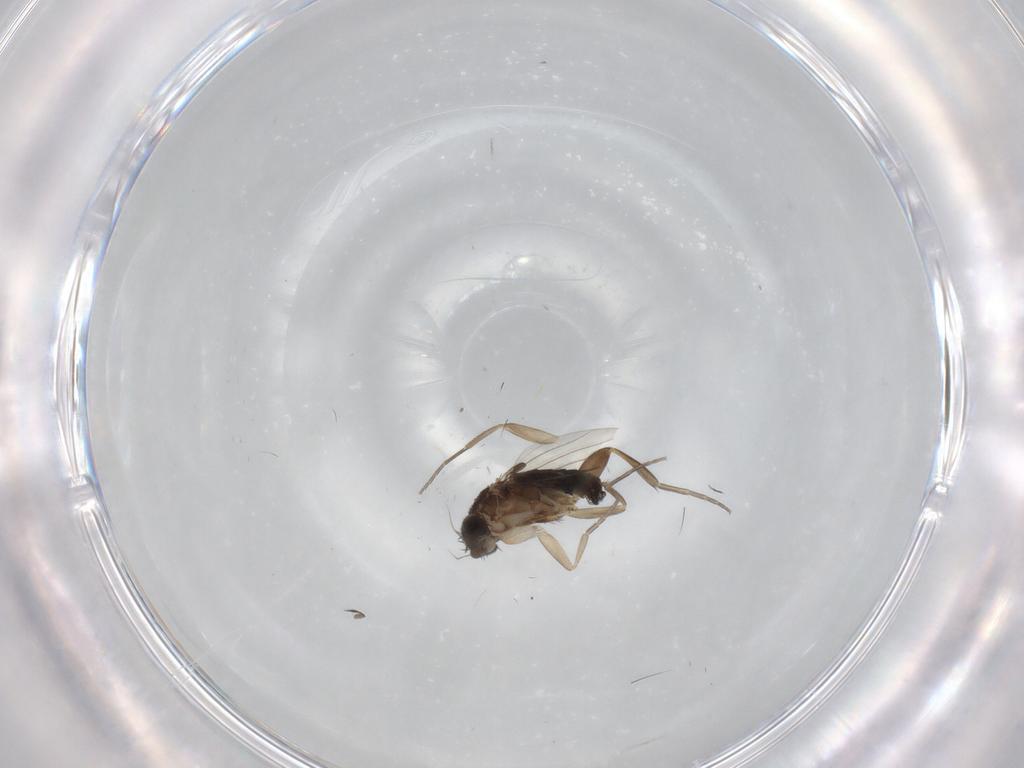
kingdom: Animalia
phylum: Arthropoda
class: Insecta
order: Diptera
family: Phoridae
